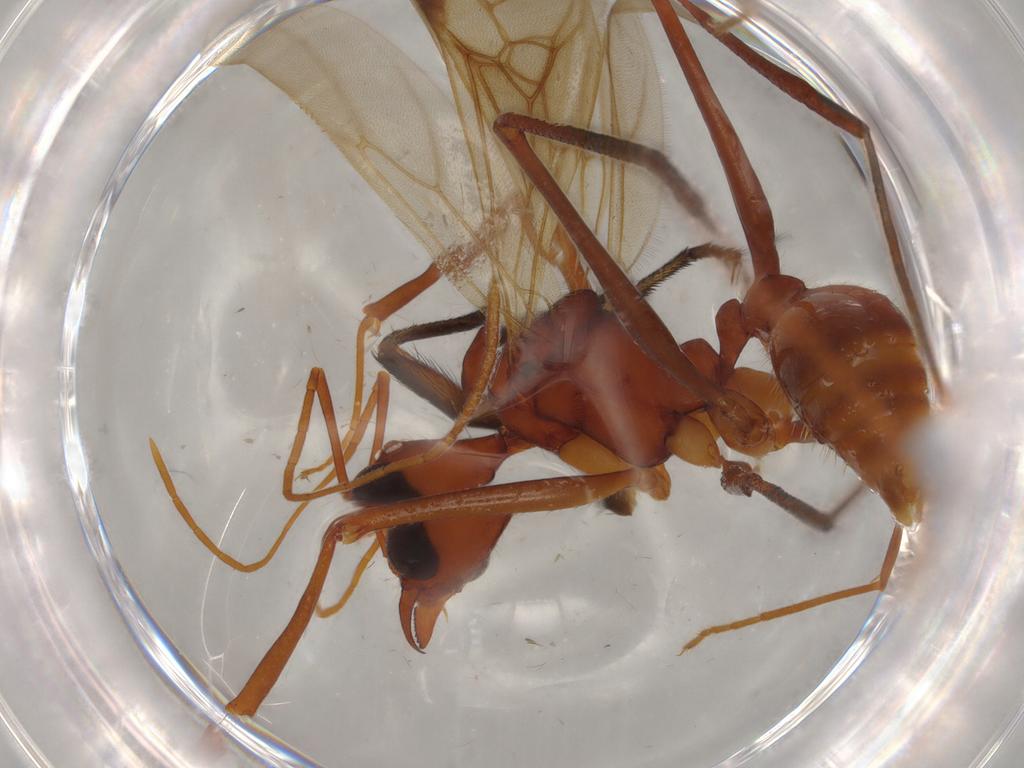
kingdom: Animalia
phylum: Arthropoda
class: Insecta
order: Hymenoptera
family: Formicidae
